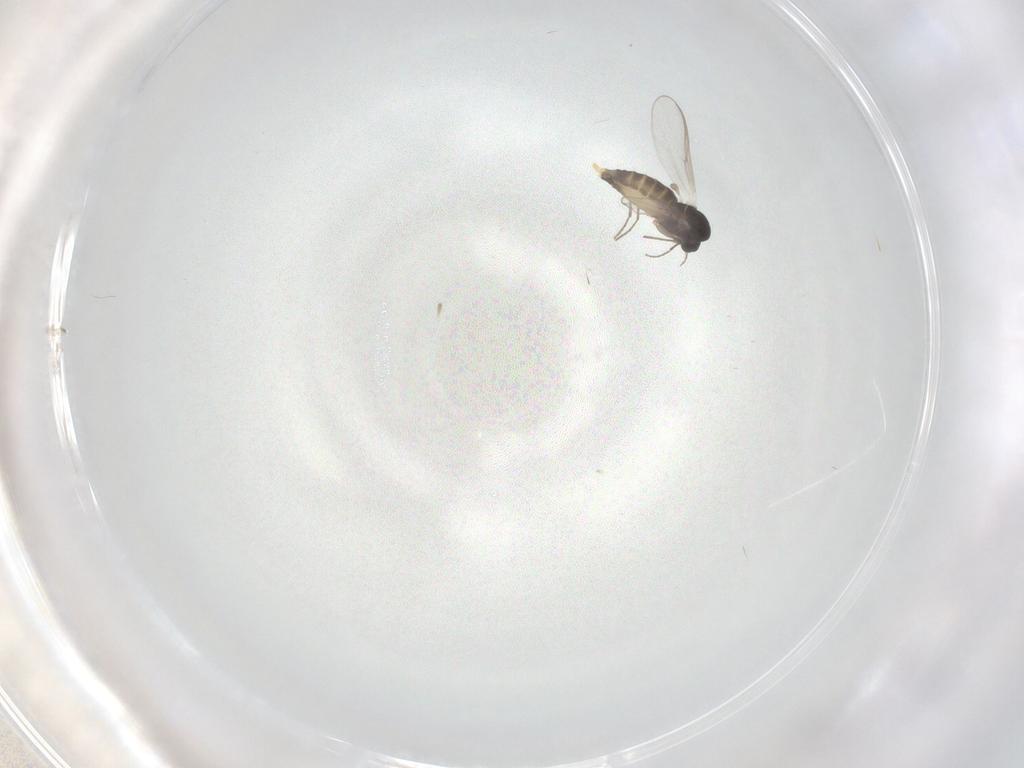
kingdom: Animalia
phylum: Arthropoda
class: Insecta
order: Diptera
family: Chironomidae
